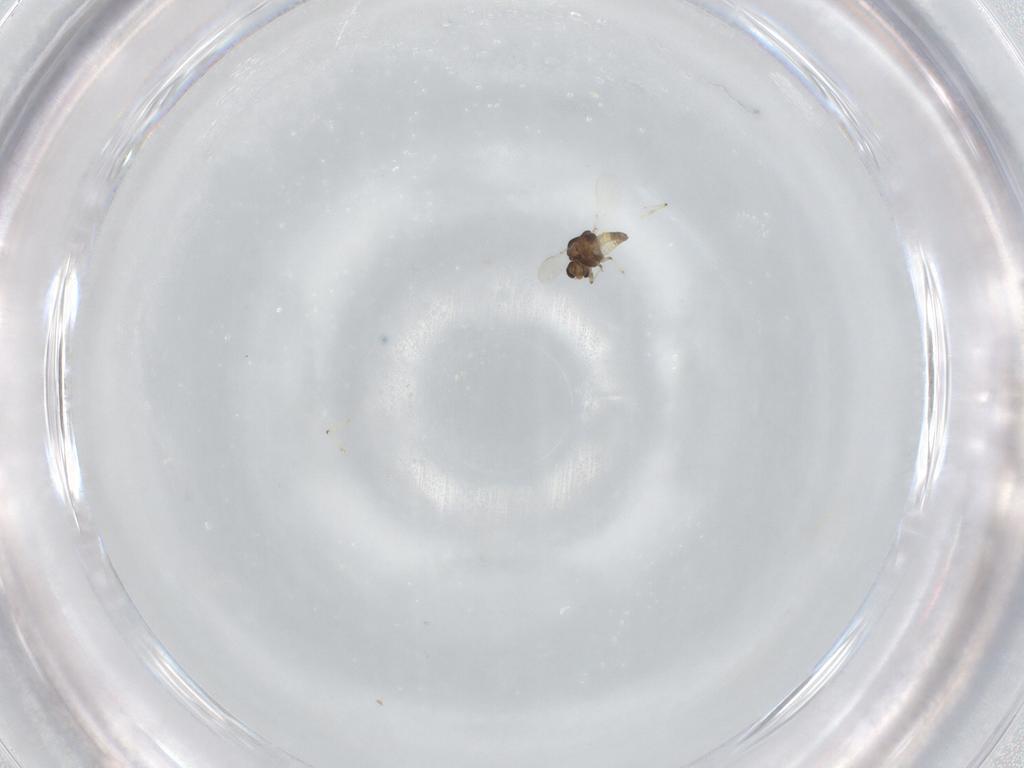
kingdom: Animalia
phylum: Arthropoda
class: Insecta
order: Diptera
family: Chironomidae
